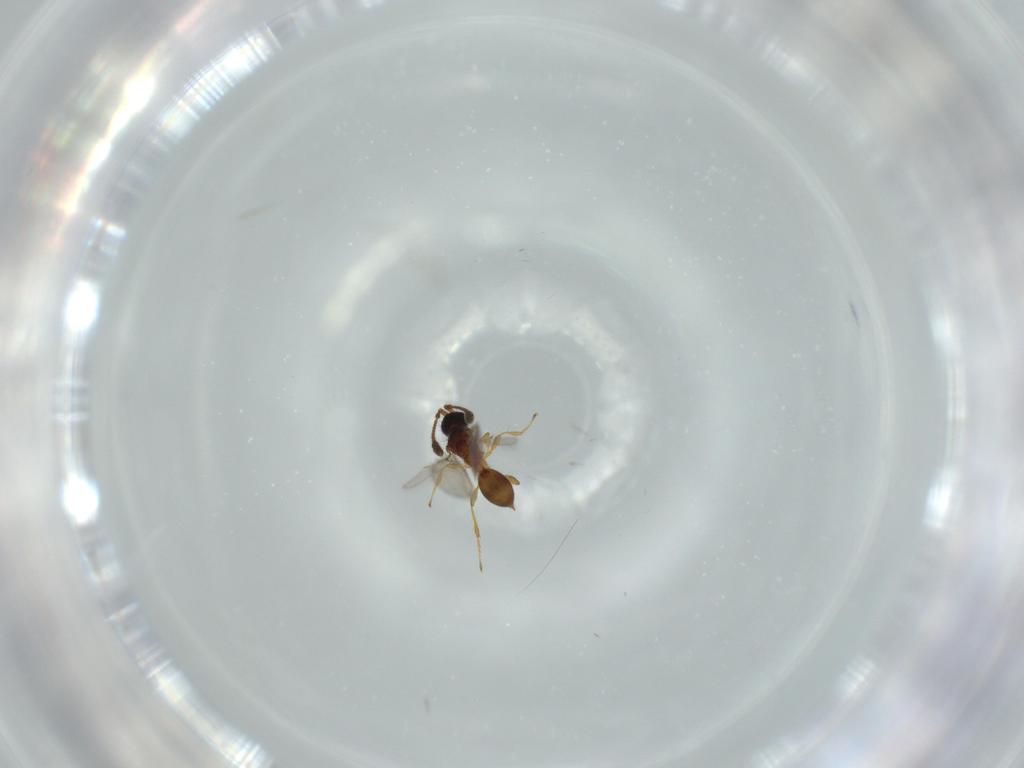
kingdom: Animalia
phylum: Arthropoda
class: Insecta
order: Hymenoptera
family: Diapriidae
